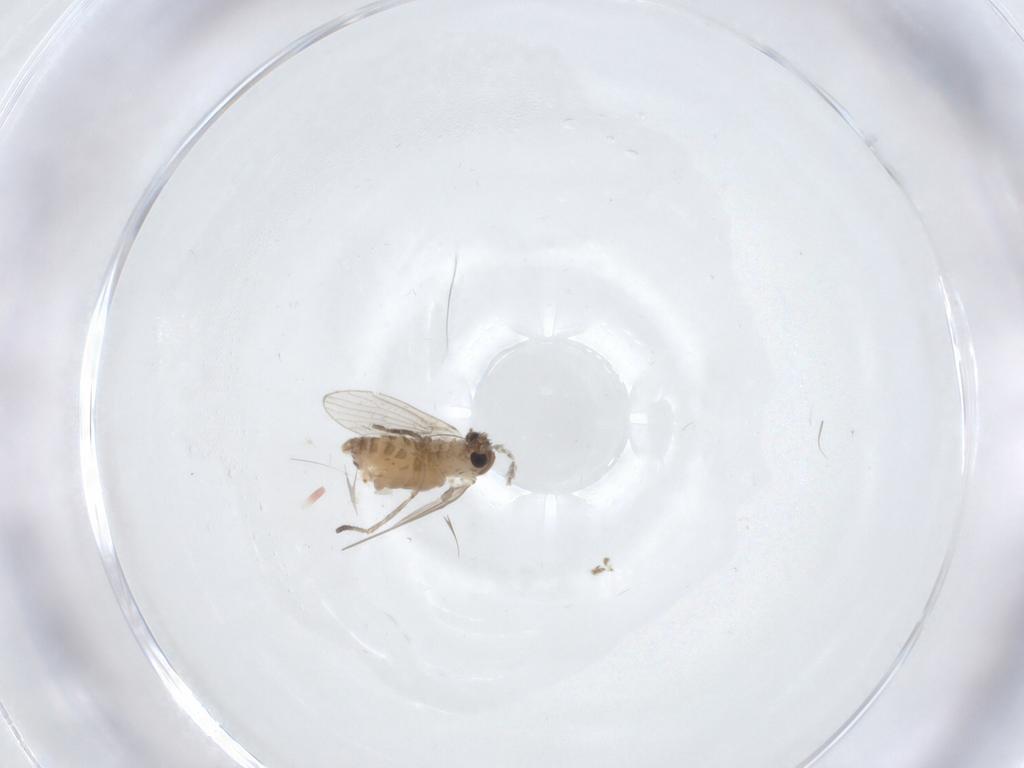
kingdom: Animalia
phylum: Arthropoda
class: Insecta
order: Diptera
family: Psychodidae
